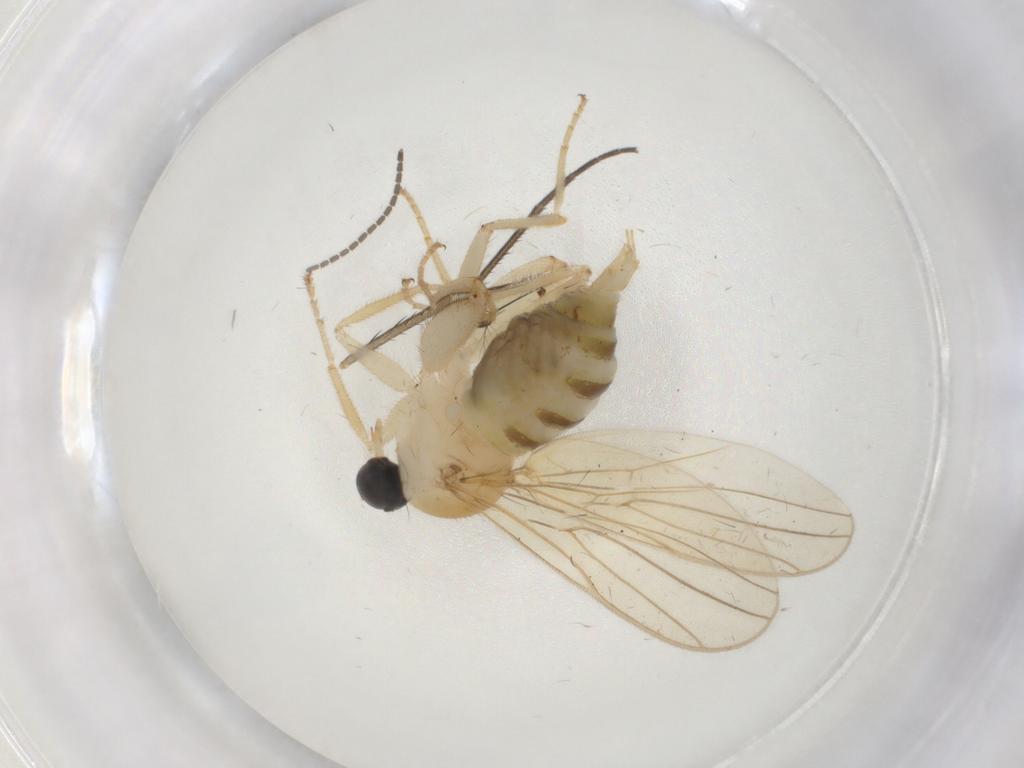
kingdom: Animalia
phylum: Arthropoda
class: Insecta
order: Diptera
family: Hybotidae
